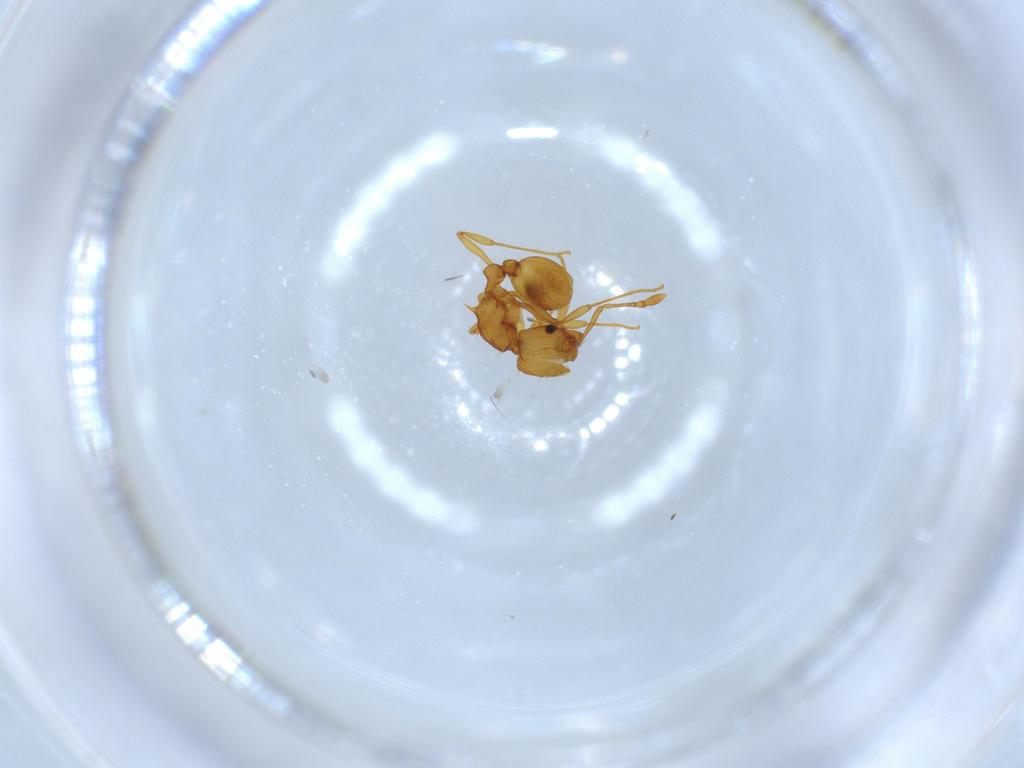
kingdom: Animalia
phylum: Arthropoda
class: Insecta
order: Hymenoptera
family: Formicidae
